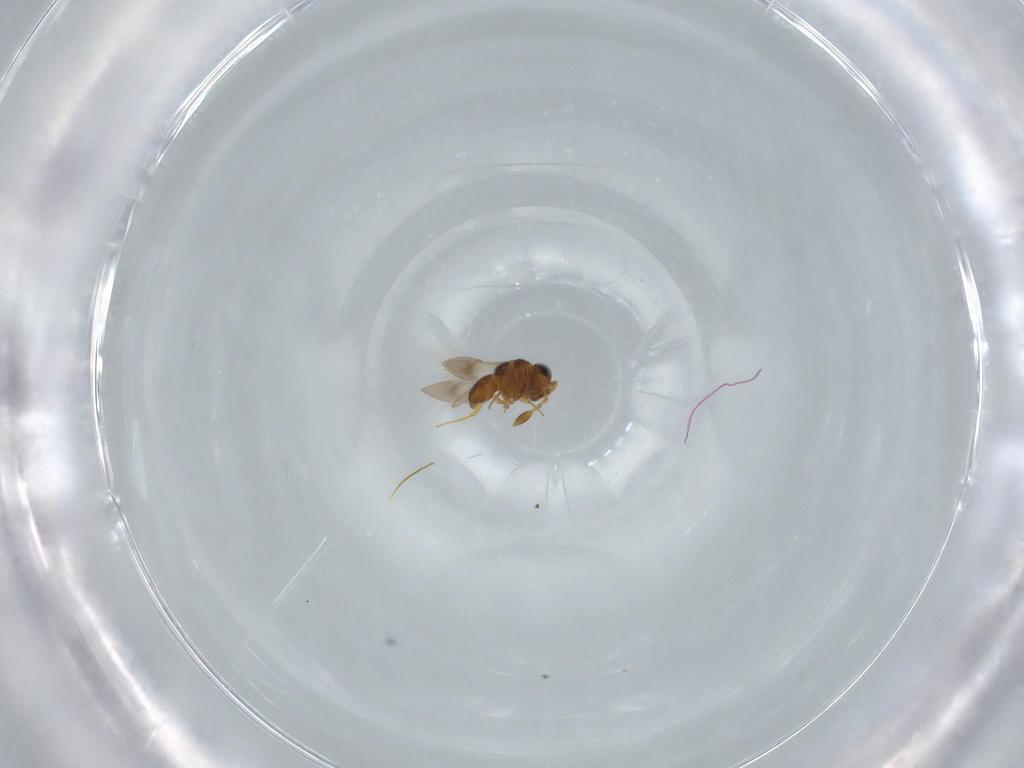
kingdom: Animalia
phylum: Arthropoda
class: Insecta
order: Hymenoptera
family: Scelionidae
